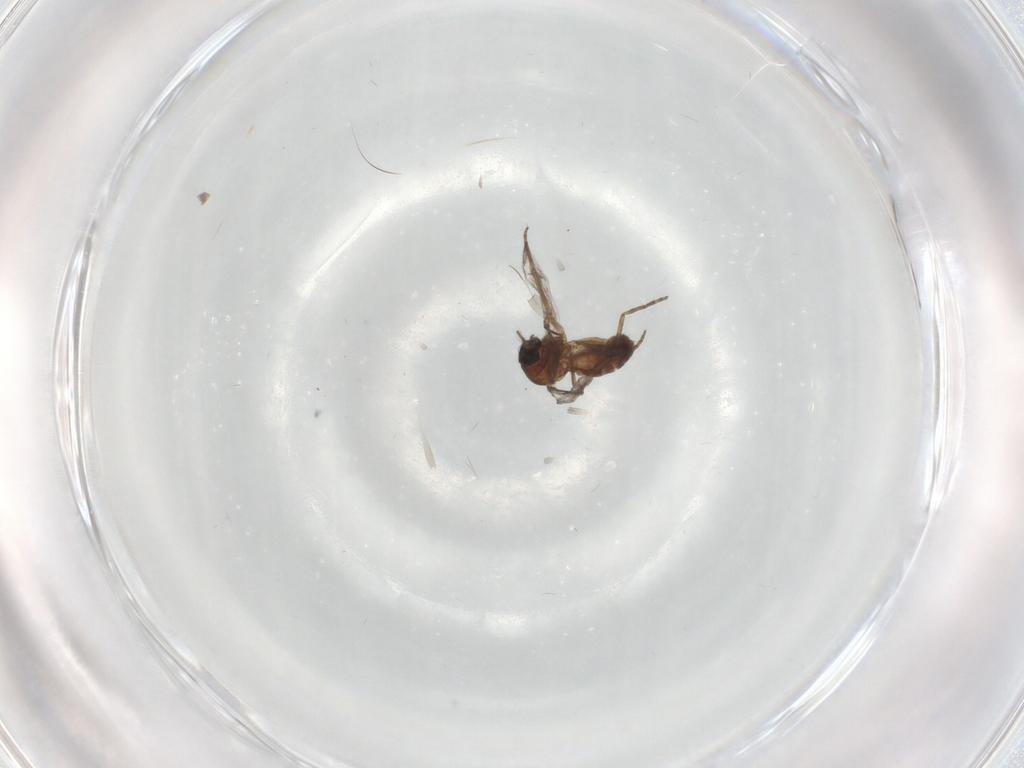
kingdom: Animalia
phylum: Arthropoda
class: Insecta
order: Diptera
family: Ceratopogonidae
